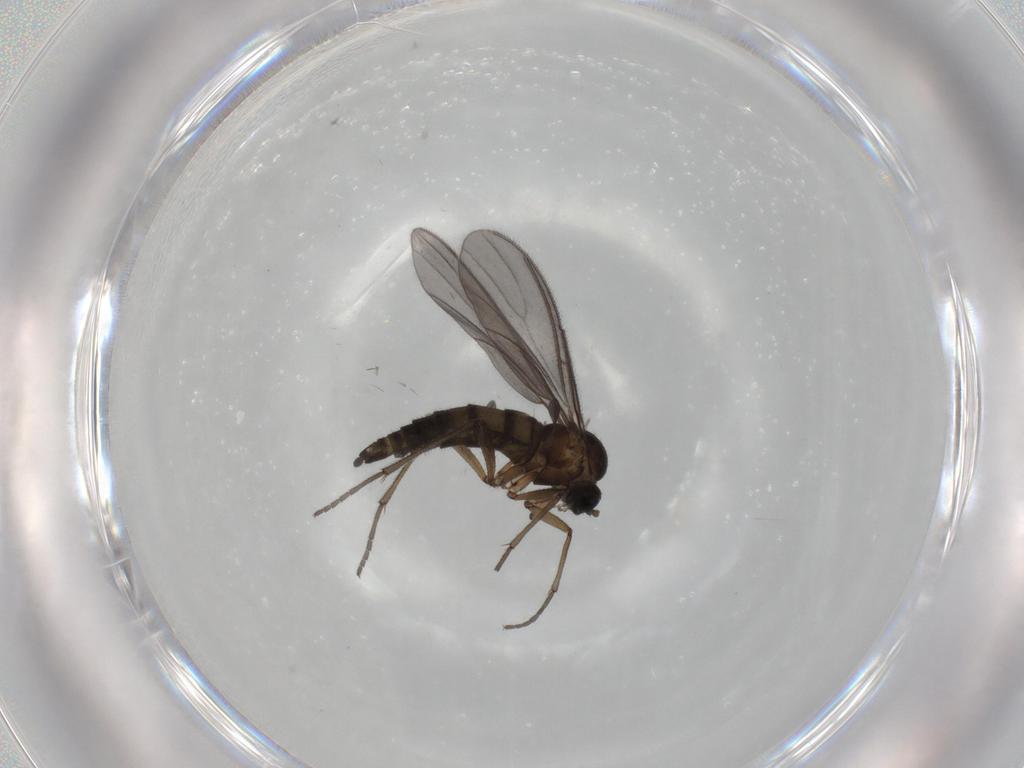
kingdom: Animalia
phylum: Arthropoda
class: Insecta
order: Diptera
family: Sciaridae
